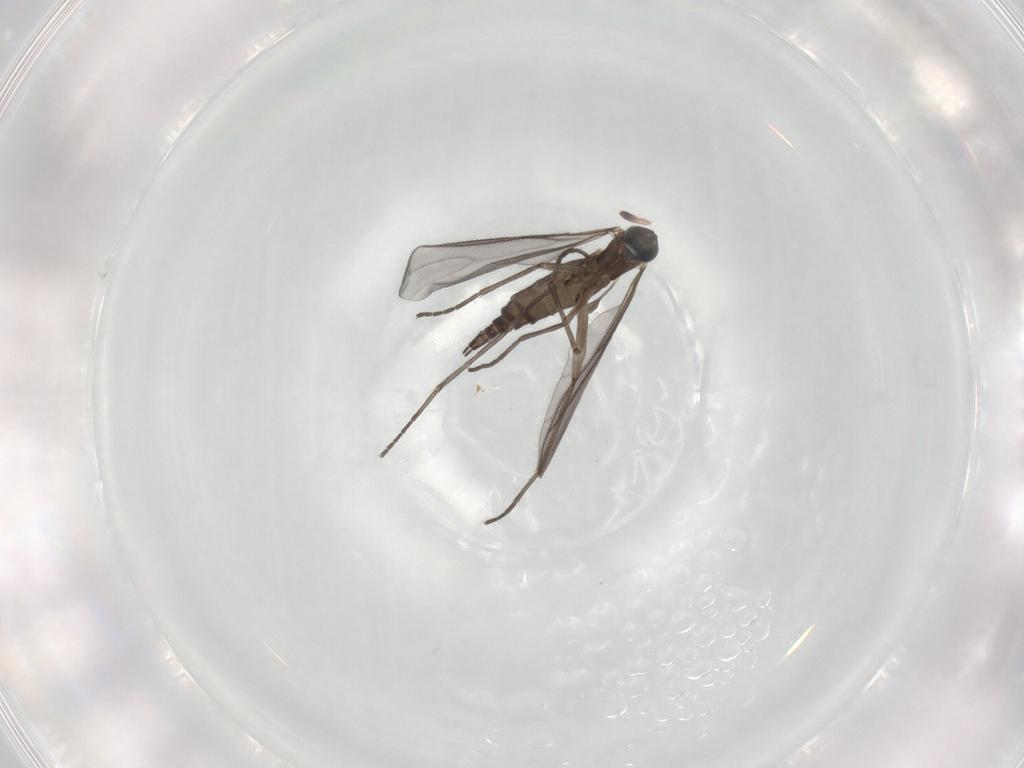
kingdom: Animalia
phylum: Arthropoda
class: Insecta
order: Diptera
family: Sciaridae
